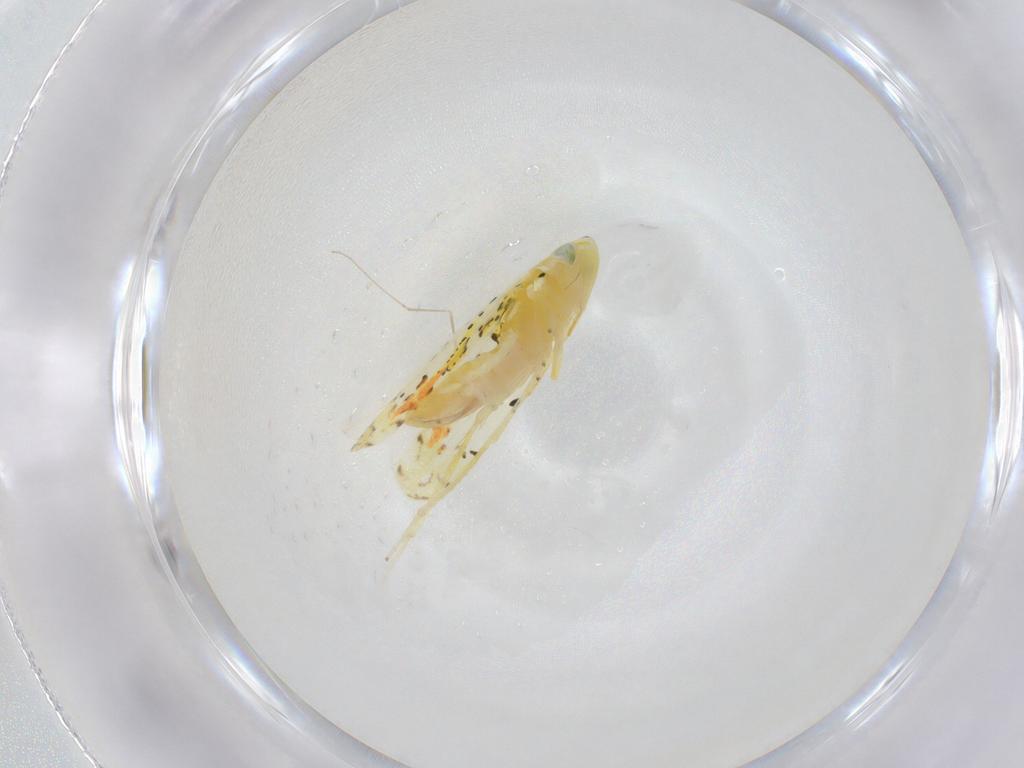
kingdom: Animalia
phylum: Arthropoda
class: Insecta
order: Hemiptera
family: Cicadellidae
